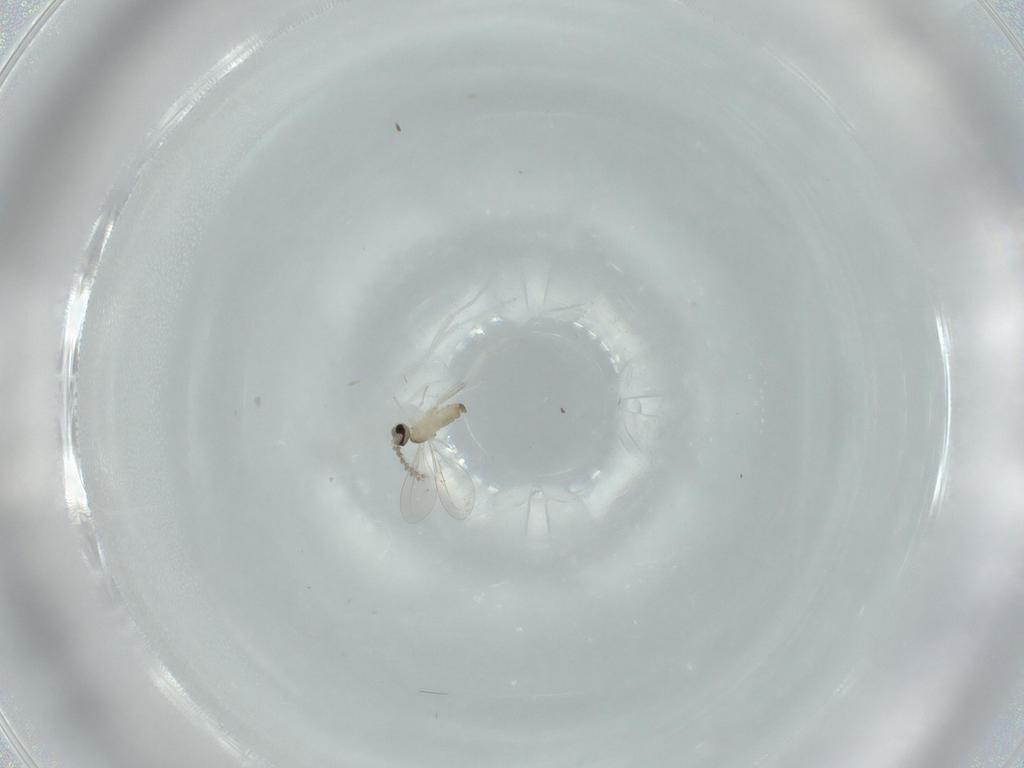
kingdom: Animalia
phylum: Arthropoda
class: Insecta
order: Diptera
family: Cecidomyiidae
